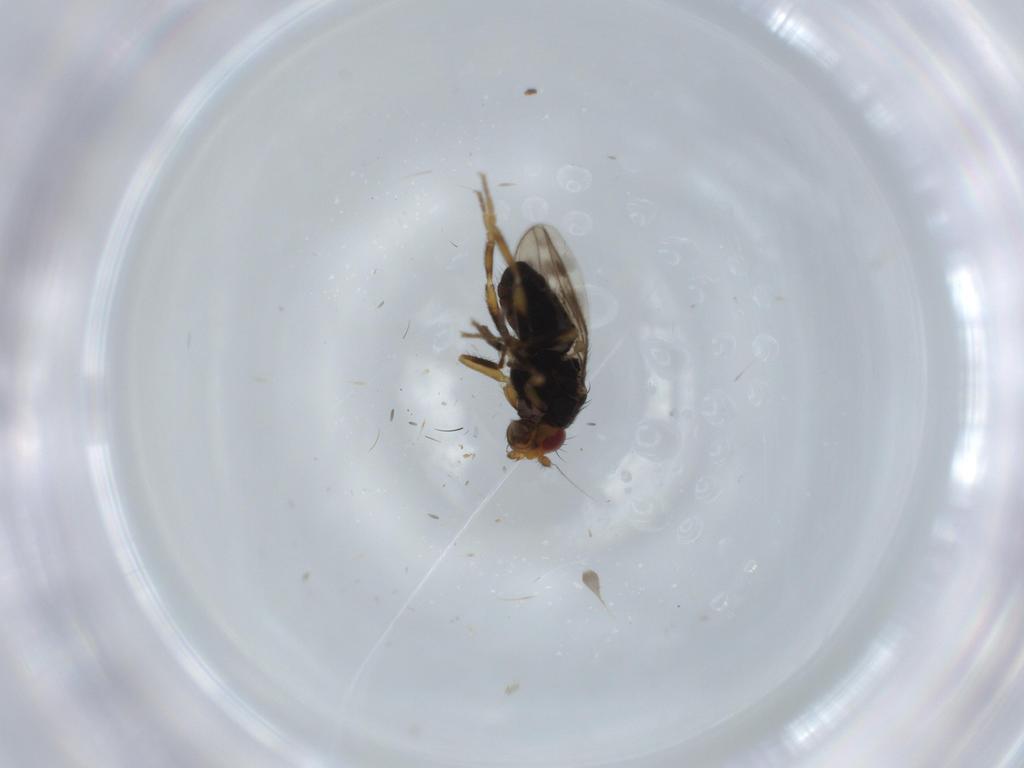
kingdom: Animalia
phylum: Arthropoda
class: Insecta
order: Diptera
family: Sphaeroceridae
